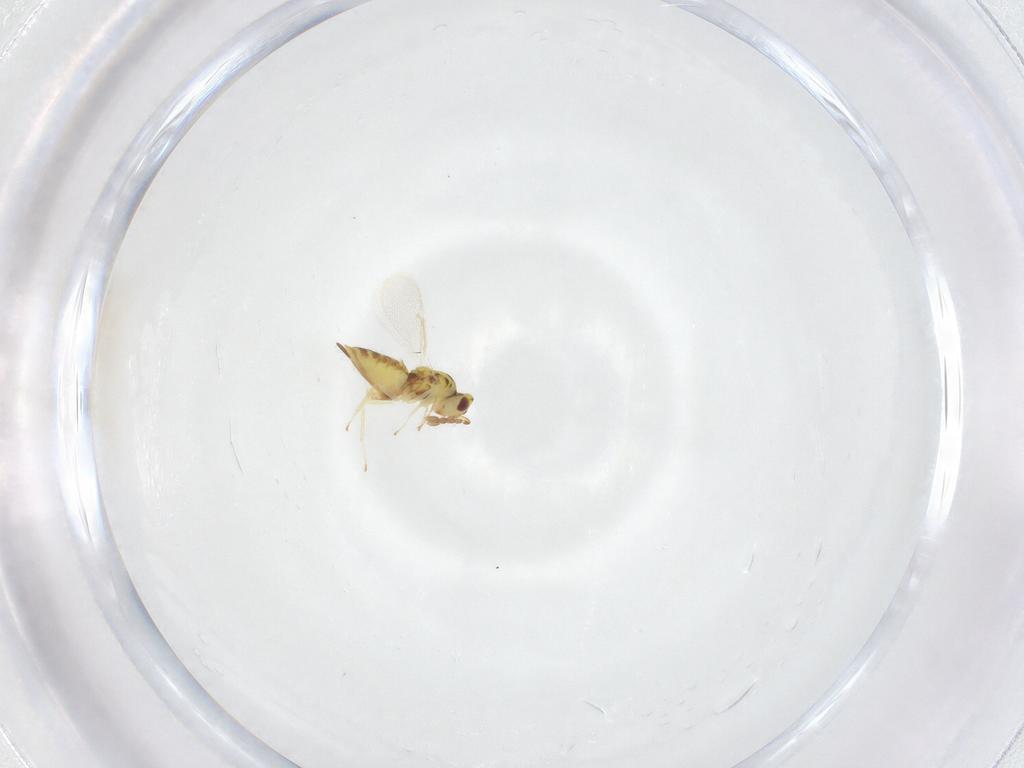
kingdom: Animalia
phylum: Arthropoda
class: Insecta
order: Hymenoptera
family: Eulophidae
